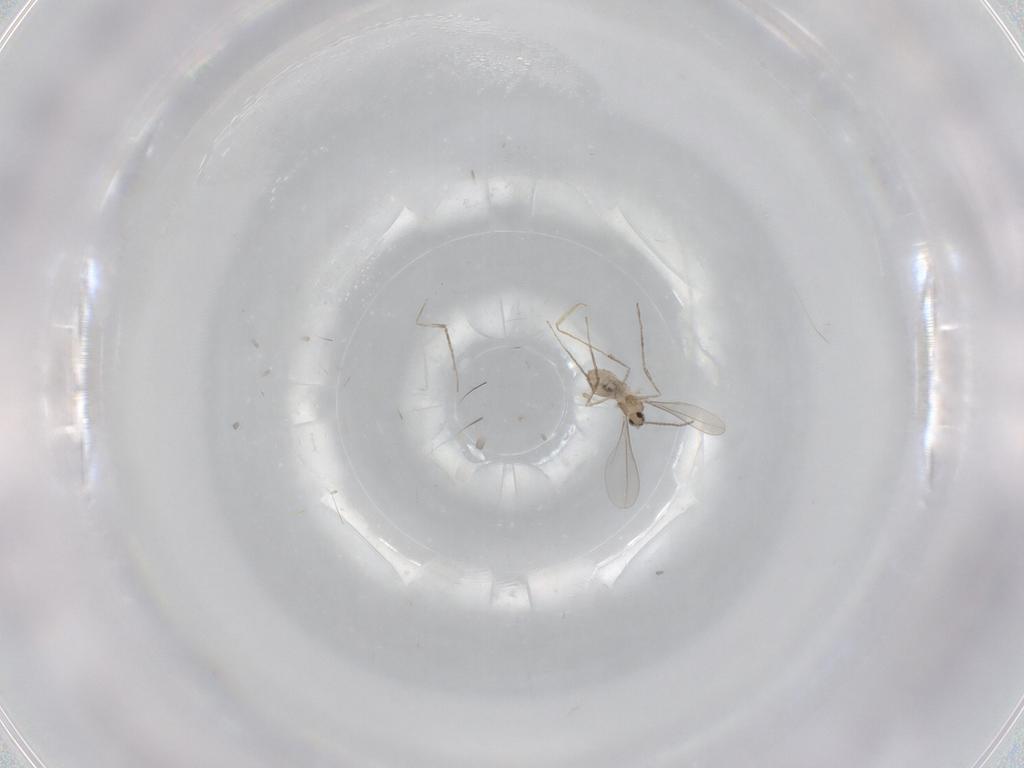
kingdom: Animalia
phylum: Arthropoda
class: Insecta
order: Diptera
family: Cecidomyiidae
